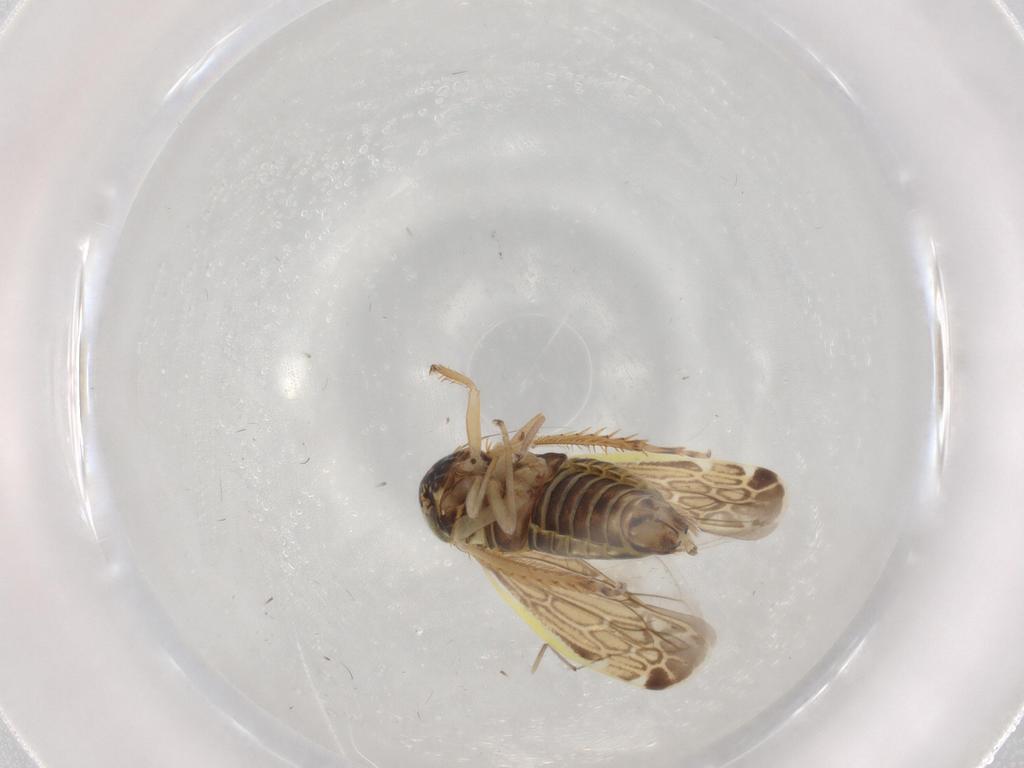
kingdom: Animalia
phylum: Arthropoda
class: Insecta
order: Hemiptera
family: Cicadellidae
